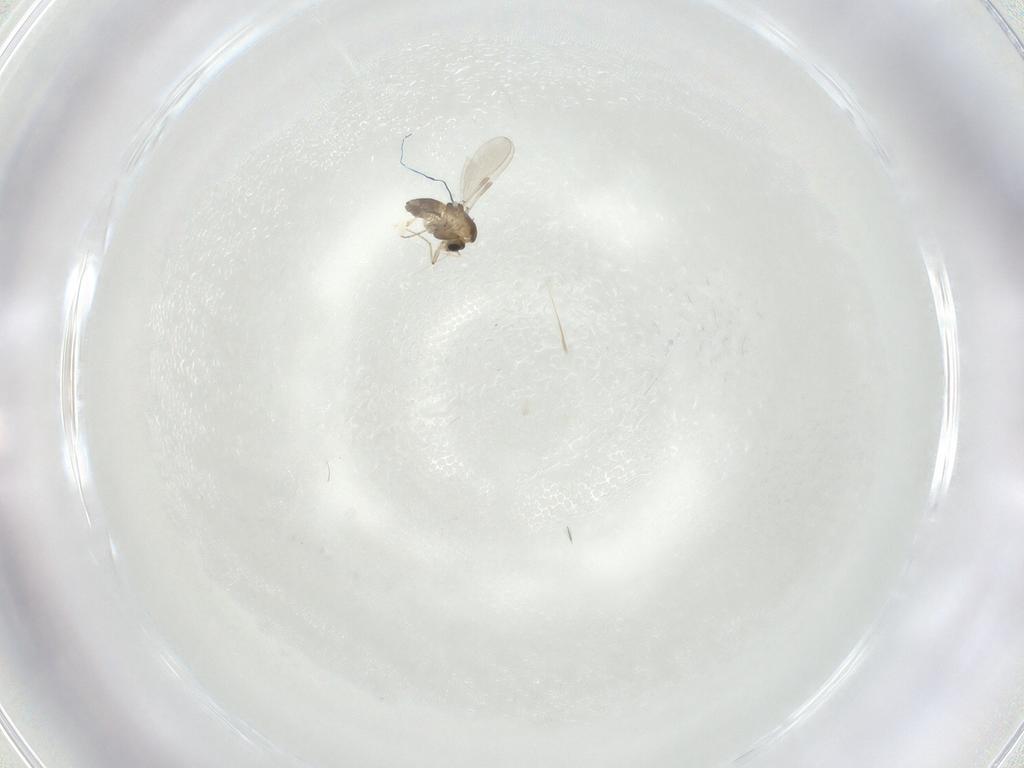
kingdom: Animalia
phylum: Arthropoda
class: Insecta
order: Diptera
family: Chironomidae
